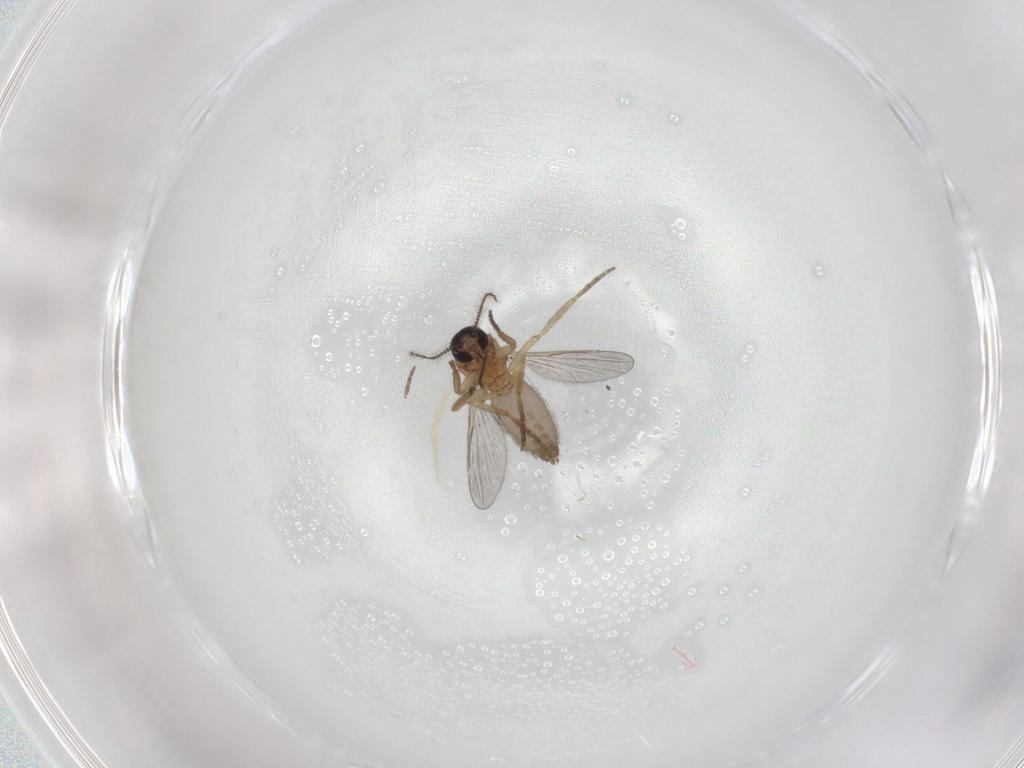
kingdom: Animalia
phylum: Arthropoda
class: Insecta
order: Diptera
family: Ceratopogonidae
